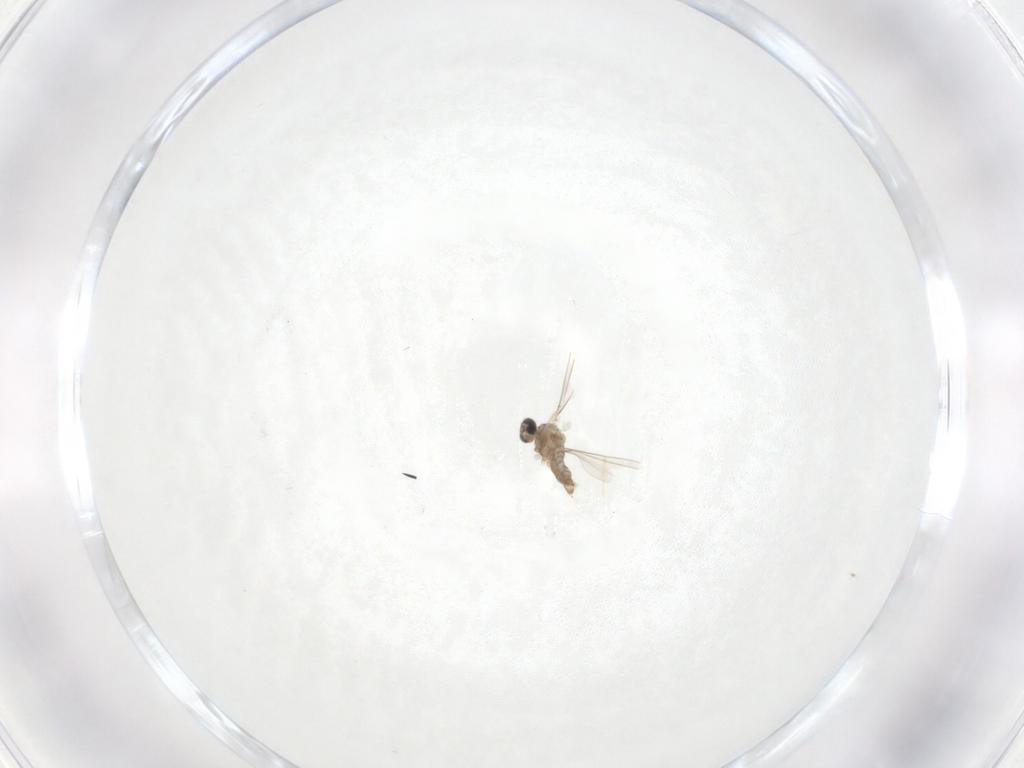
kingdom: Animalia
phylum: Arthropoda
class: Insecta
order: Diptera
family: Cecidomyiidae
